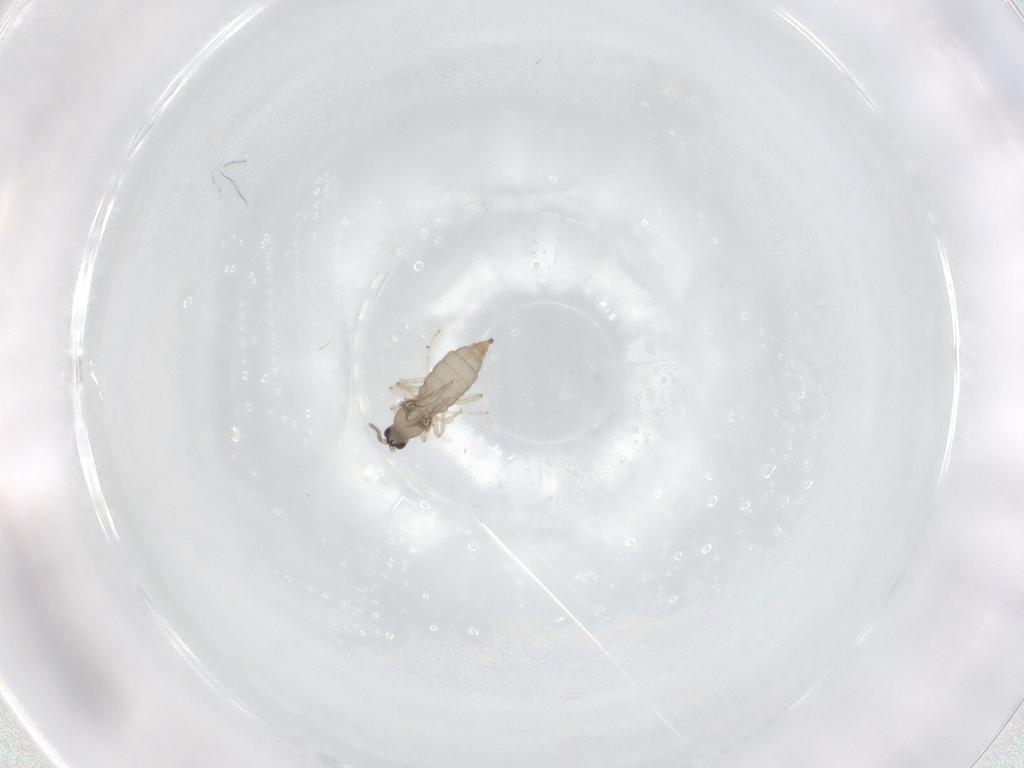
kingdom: Animalia
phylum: Arthropoda
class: Insecta
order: Diptera
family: Cecidomyiidae
